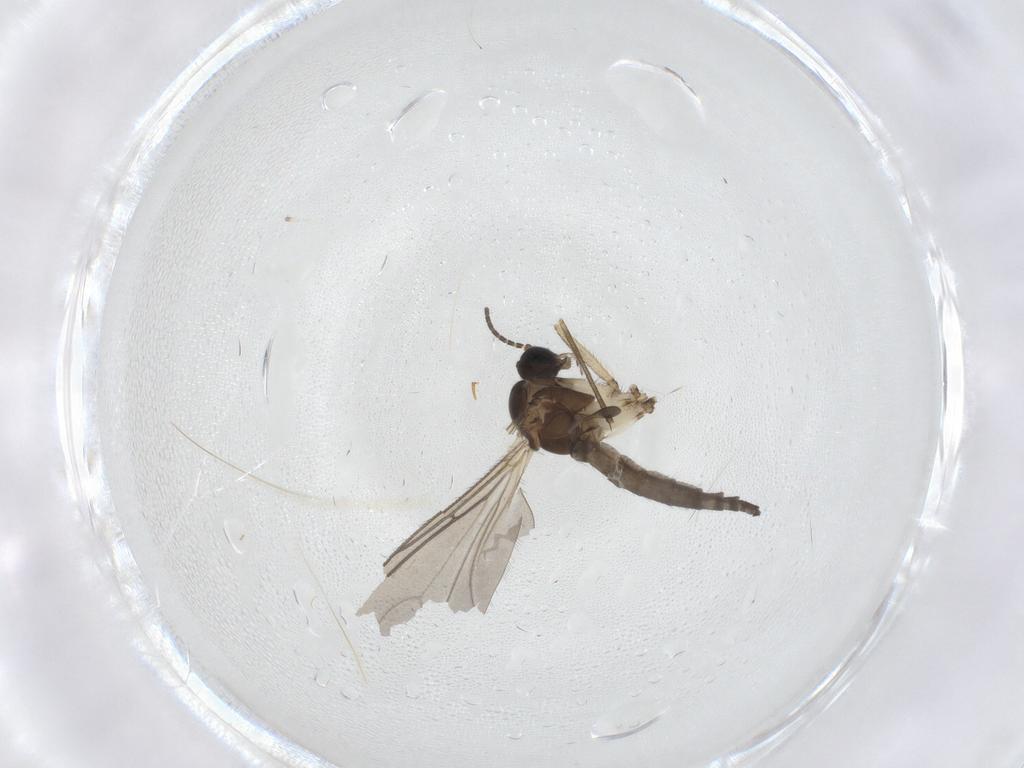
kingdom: Animalia
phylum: Arthropoda
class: Insecta
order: Diptera
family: Sciaridae
